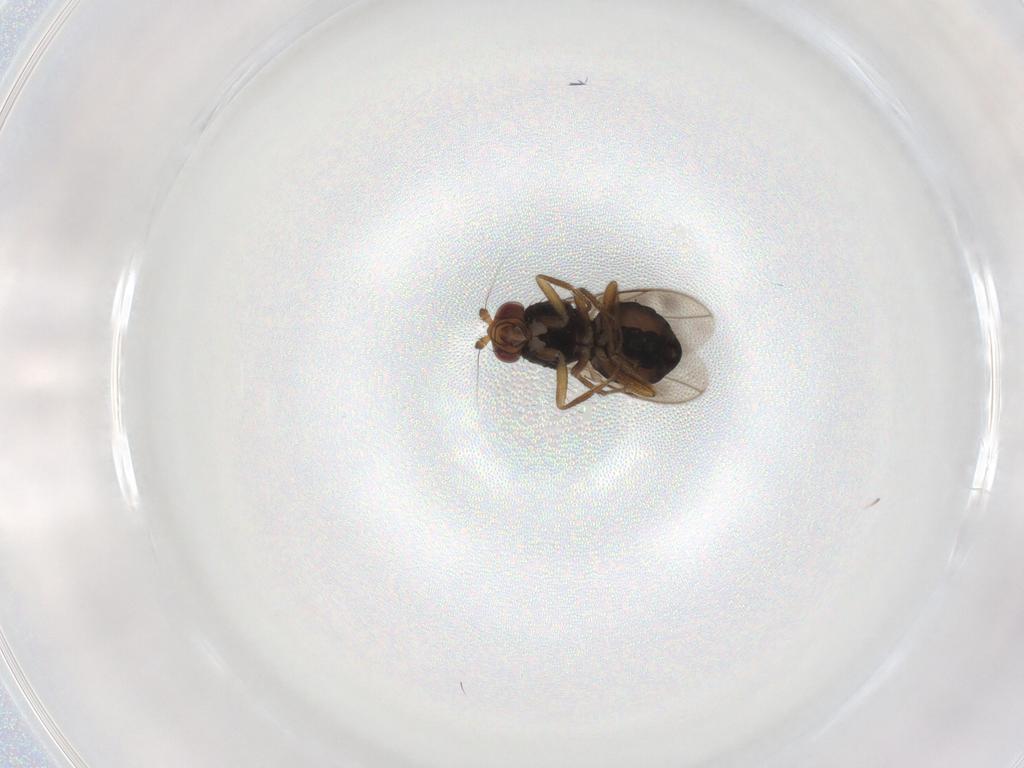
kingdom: Animalia
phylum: Arthropoda
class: Insecta
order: Diptera
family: Sphaeroceridae
